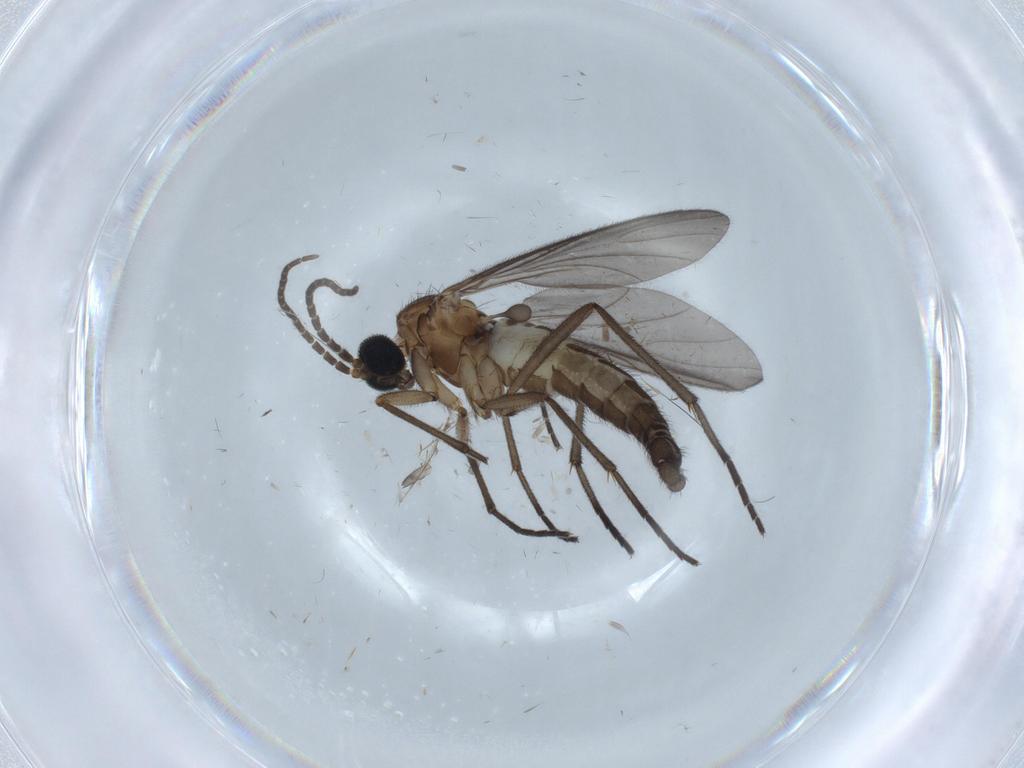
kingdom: Animalia
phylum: Arthropoda
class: Insecta
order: Diptera
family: Sciaridae
